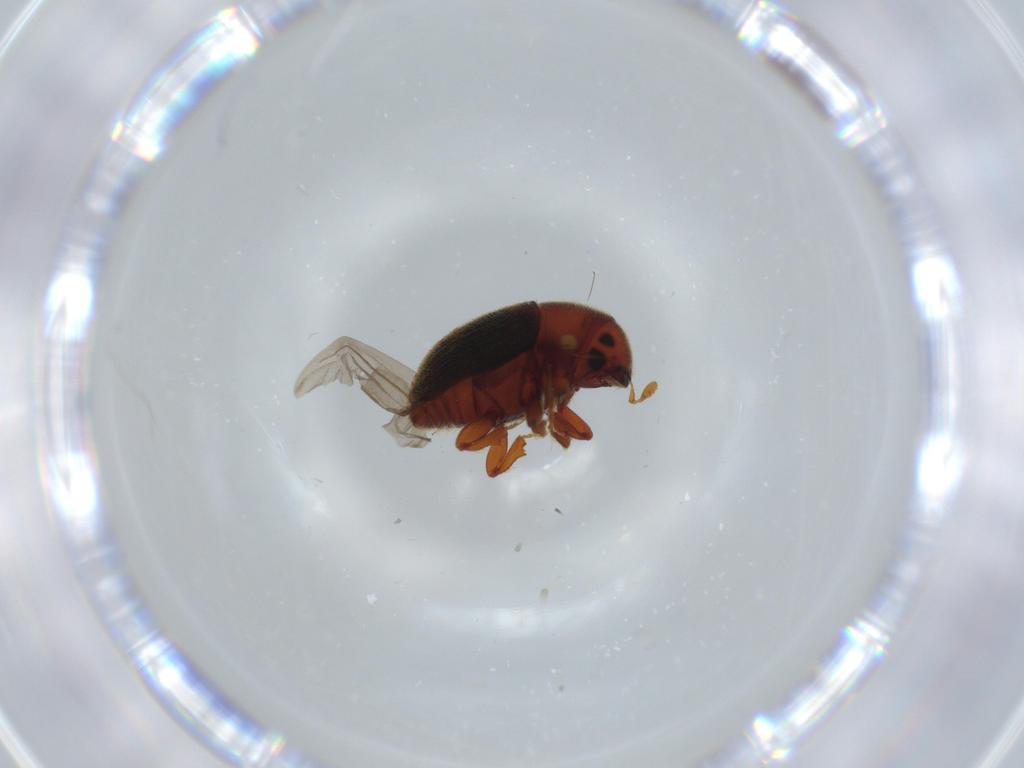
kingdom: Animalia
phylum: Arthropoda
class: Insecta
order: Coleoptera
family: Curculionidae
